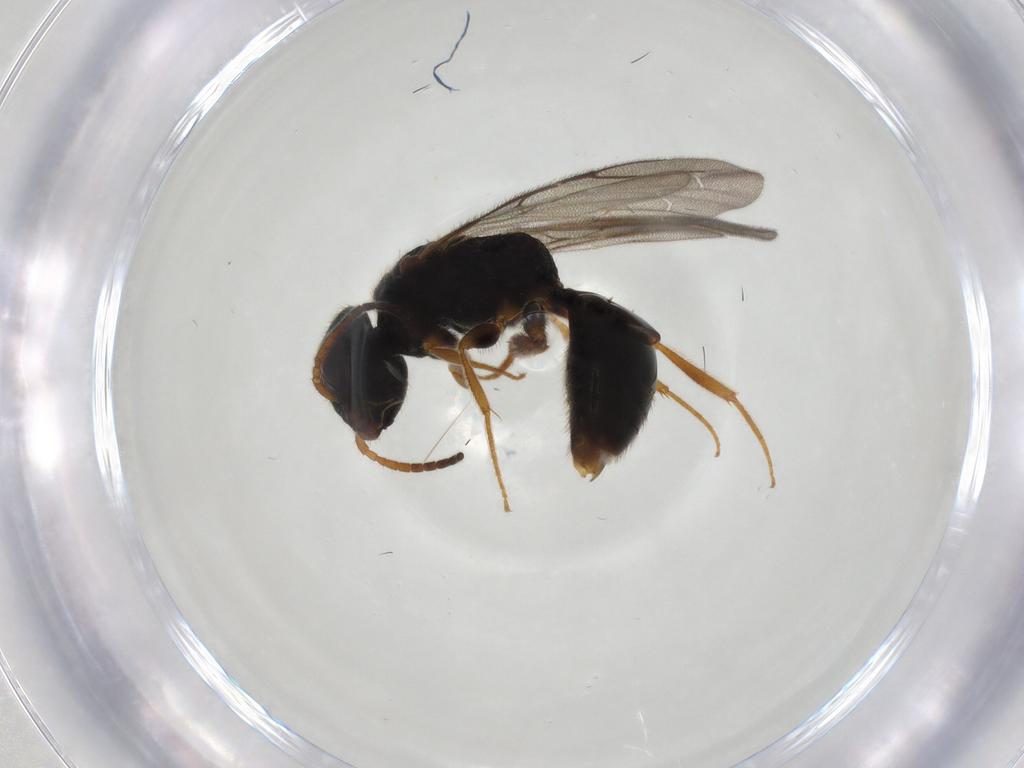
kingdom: Animalia
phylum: Arthropoda
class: Insecta
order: Hymenoptera
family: Bethylidae
